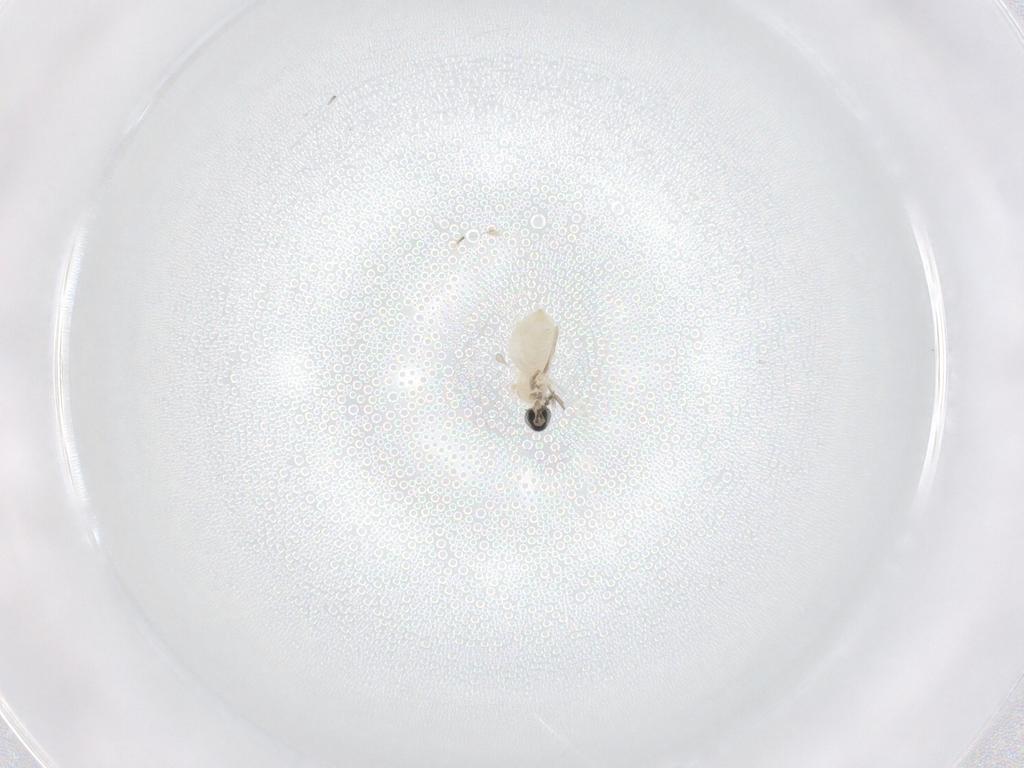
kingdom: Animalia
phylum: Arthropoda
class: Insecta
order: Diptera
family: Cecidomyiidae
